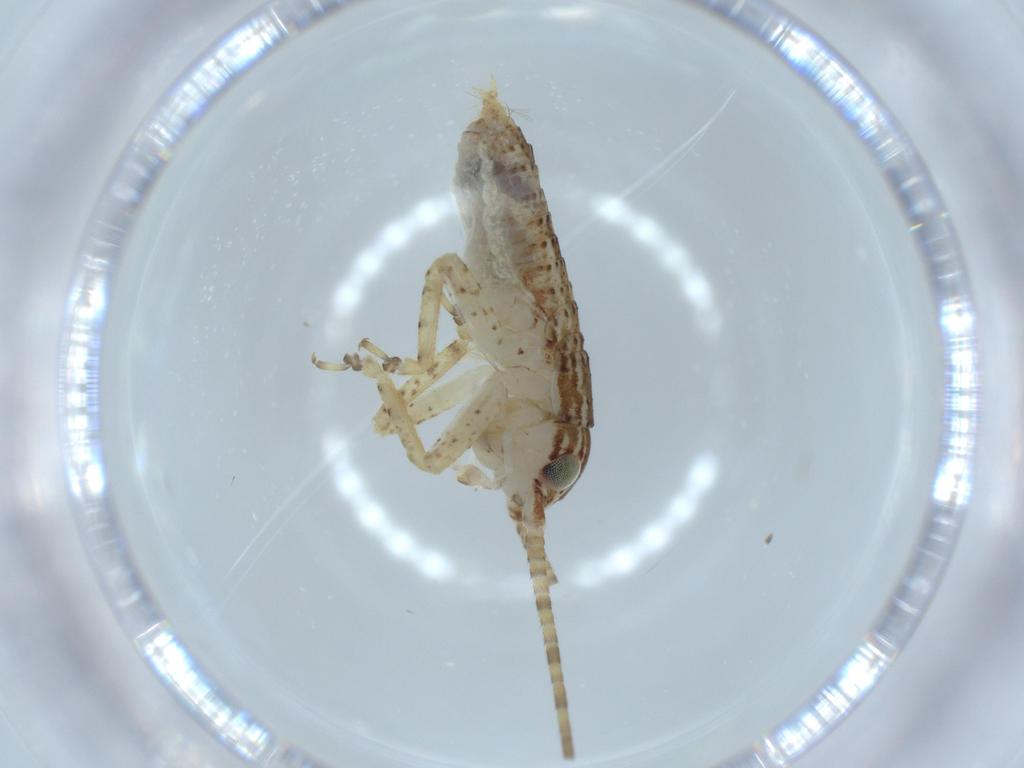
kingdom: Animalia
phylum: Arthropoda
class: Insecta
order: Orthoptera
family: Gryllidae
